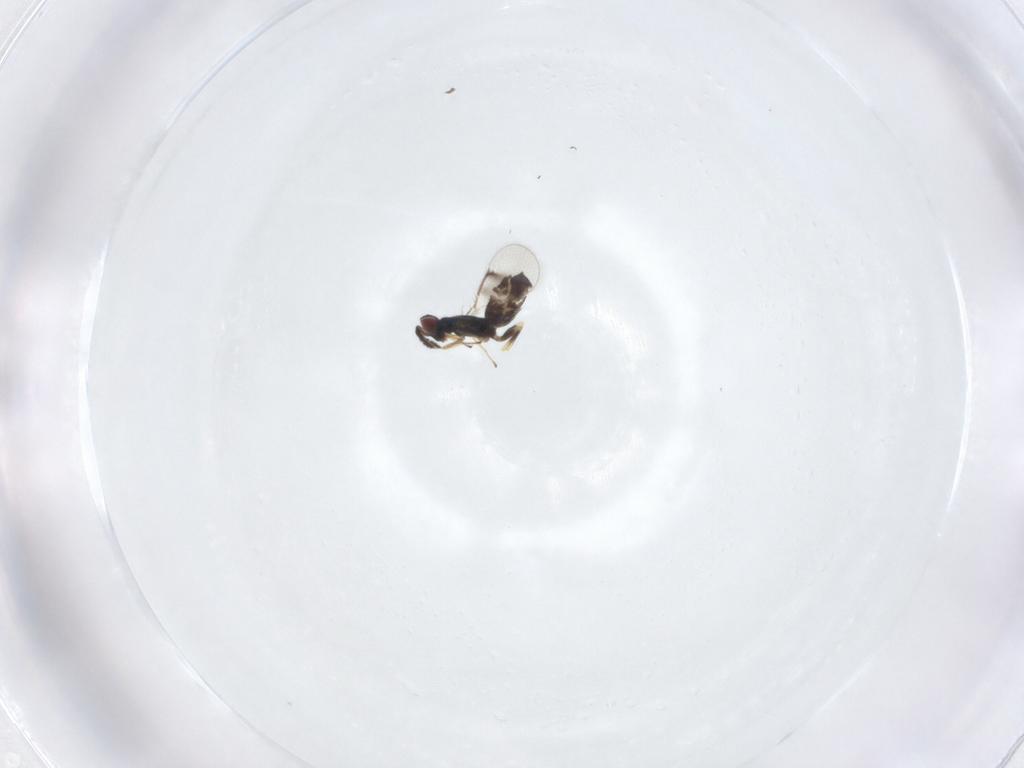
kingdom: Animalia
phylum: Arthropoda
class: Insecta
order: Hymenoptera
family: Eulophidae
